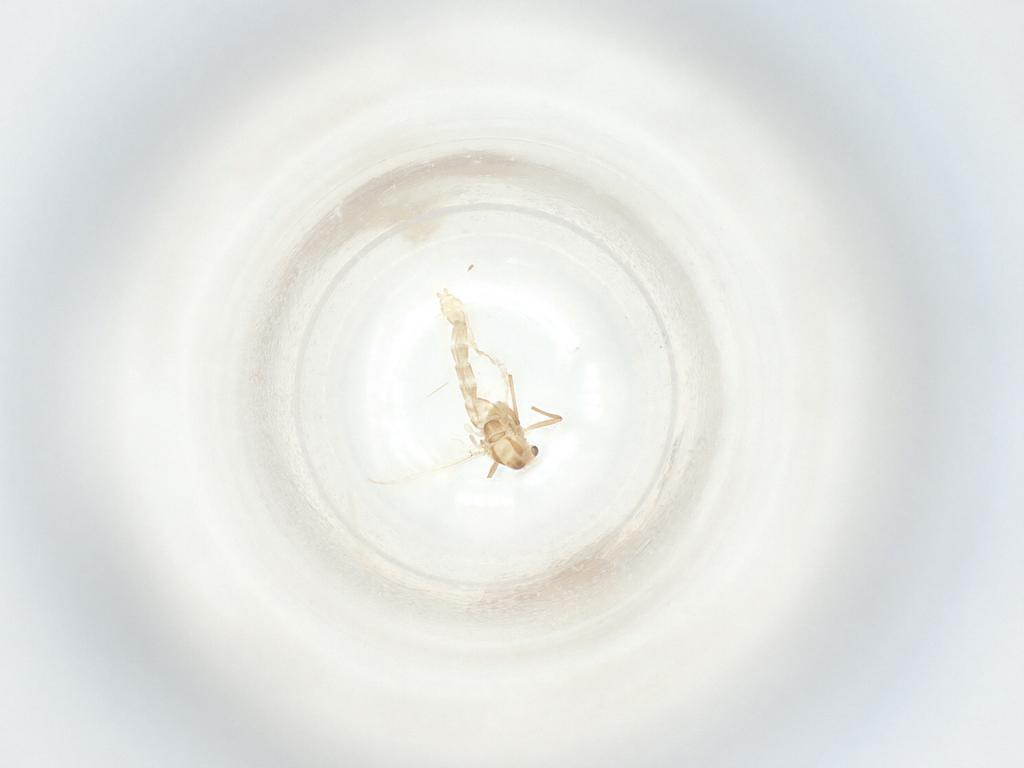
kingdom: Animalia
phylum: Arthropoda
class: Insecta
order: Diptera
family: Chironomidae
